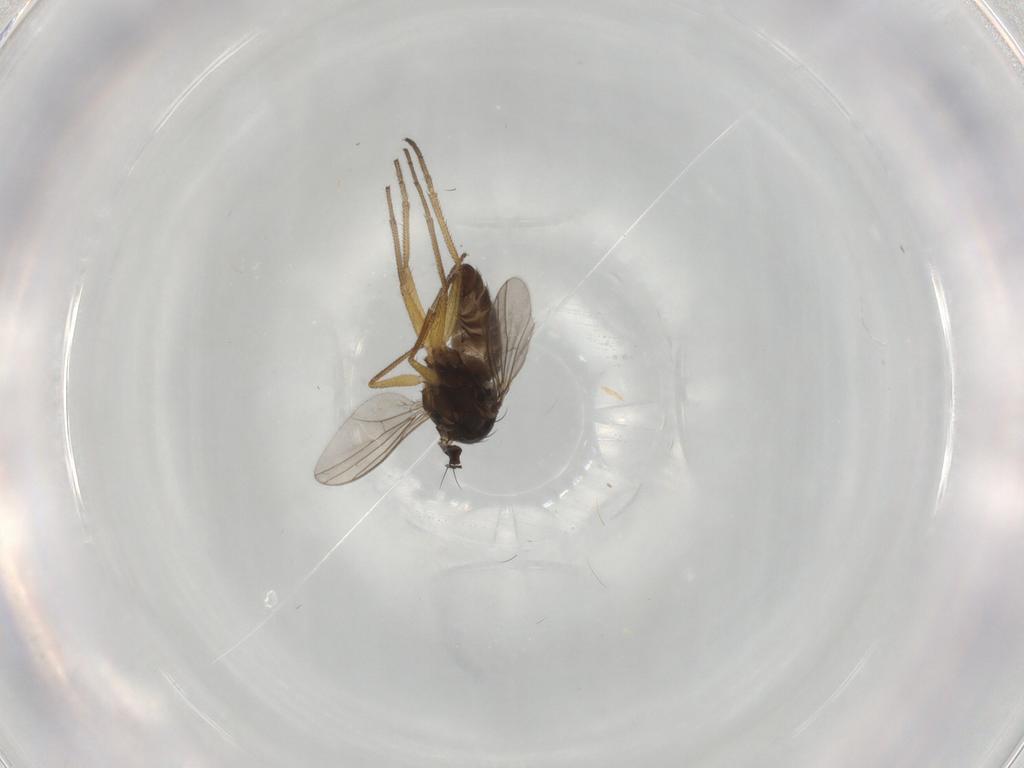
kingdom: Animalia
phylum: Arthropoda
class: Insecta
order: Diptera
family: Dolichopodidae
